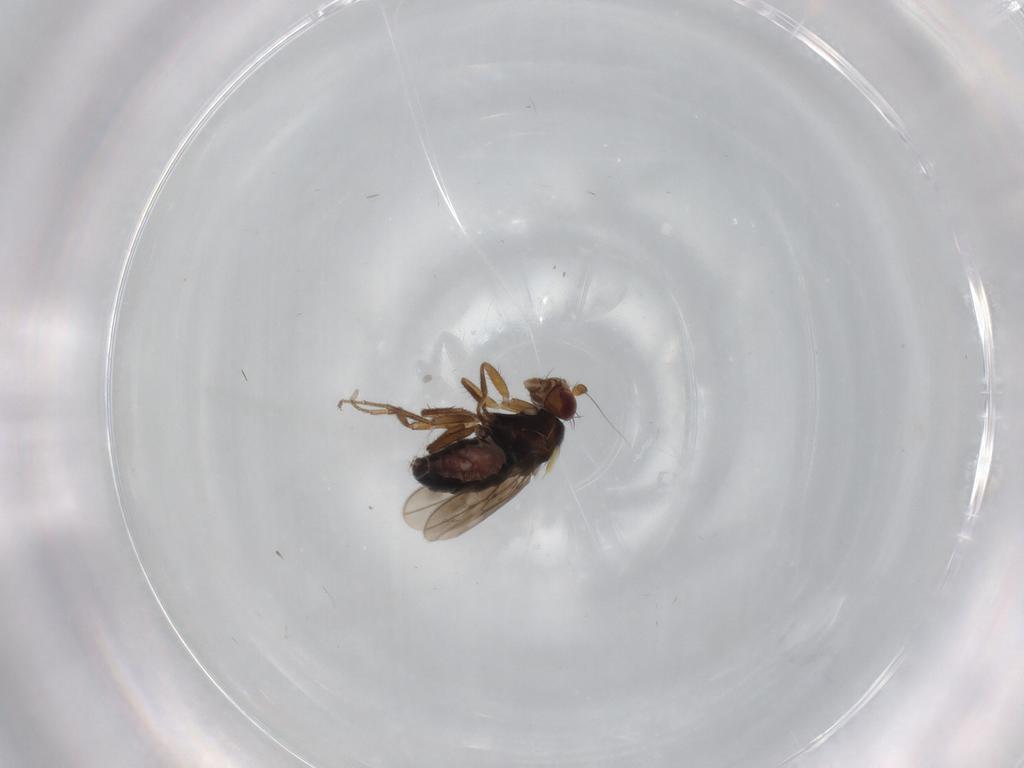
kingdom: Animalia
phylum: Arthropoda
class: Insecta
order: Diptera
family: Sphaeroceridae
